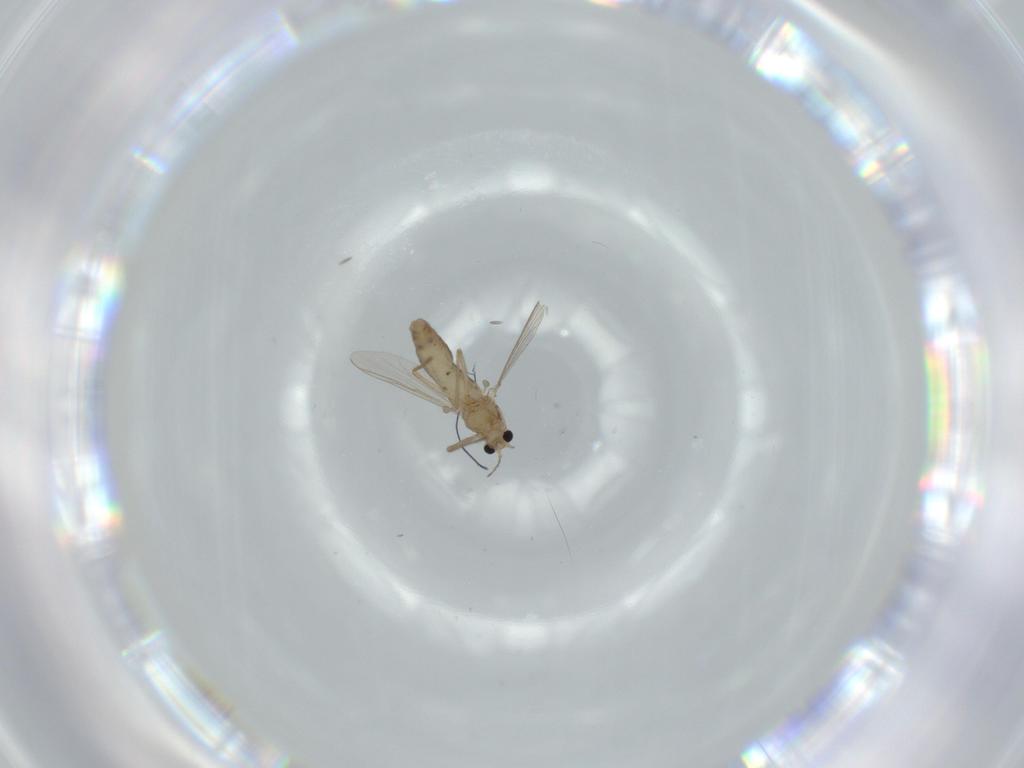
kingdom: Animalia
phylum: Arthropoda
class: Insecta
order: Diptera
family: Chironomidae
